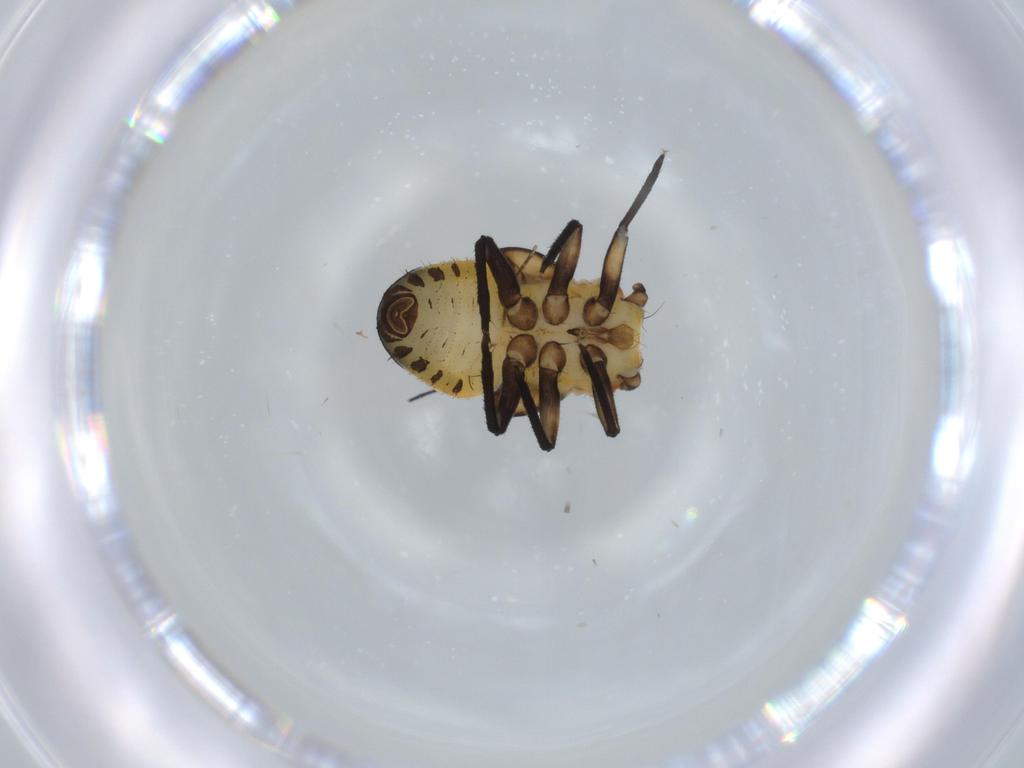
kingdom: Animalia
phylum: Arthropoda
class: Insecta
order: Hemiptera
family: Psyllidae
